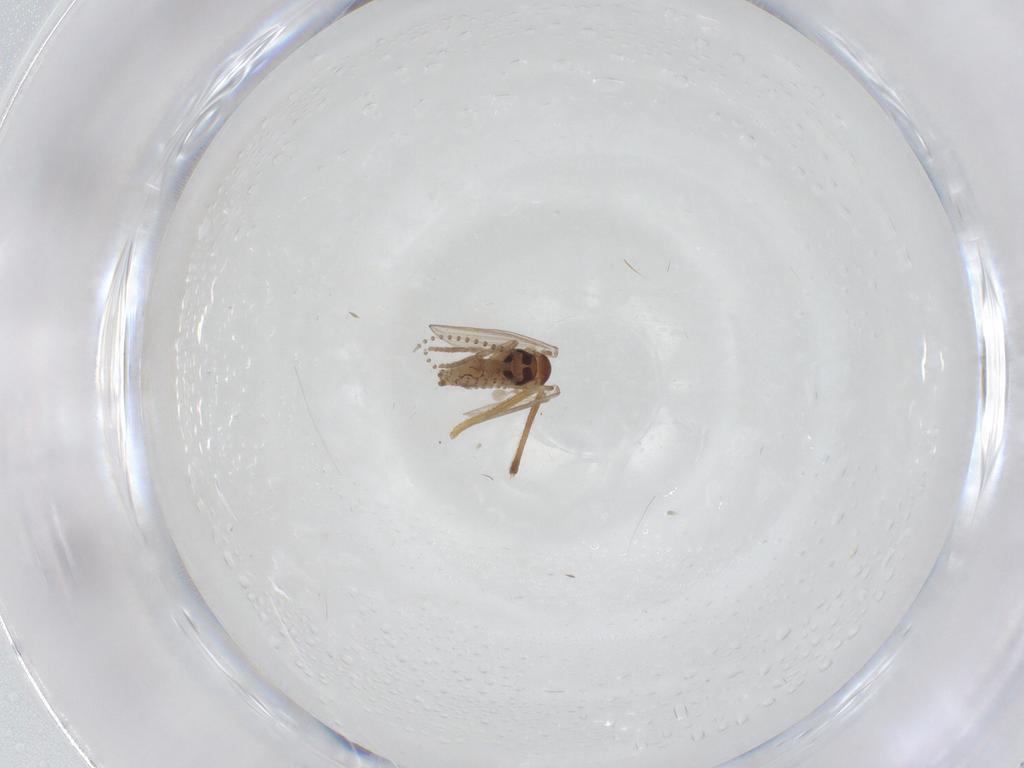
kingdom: Animalia
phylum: Arthropoda
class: Insecta
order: Diptera
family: Psychodidae
